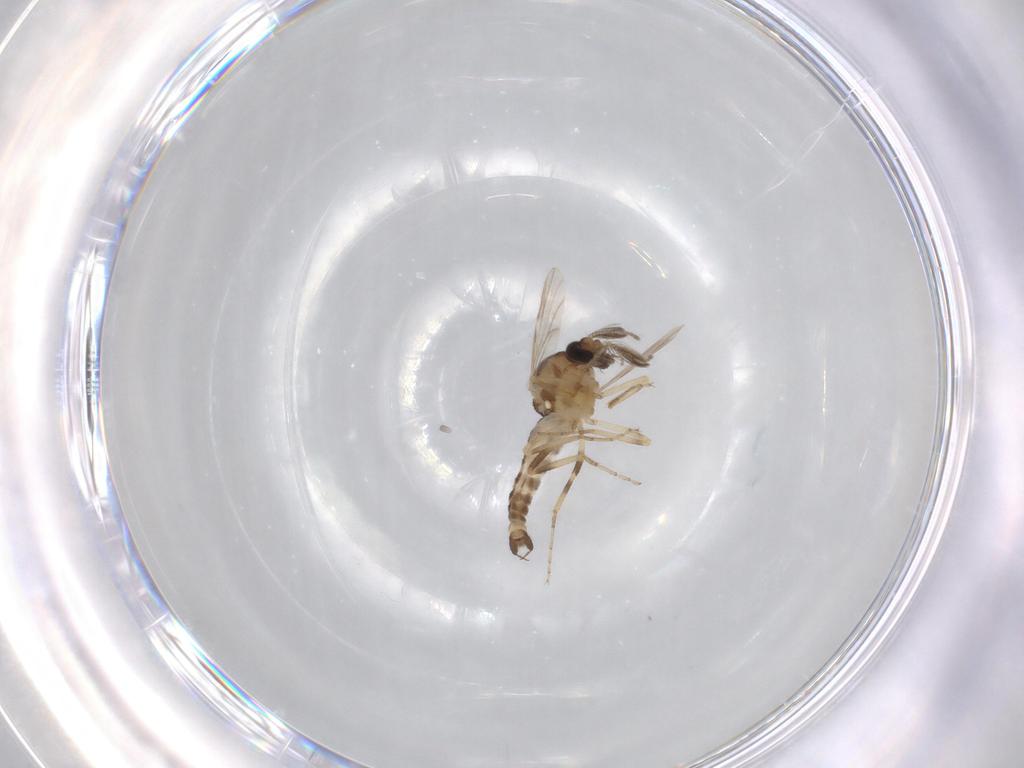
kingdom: Animalia
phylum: Arthropoda
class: Insecta
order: Diptera
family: Ceratopogonidae
